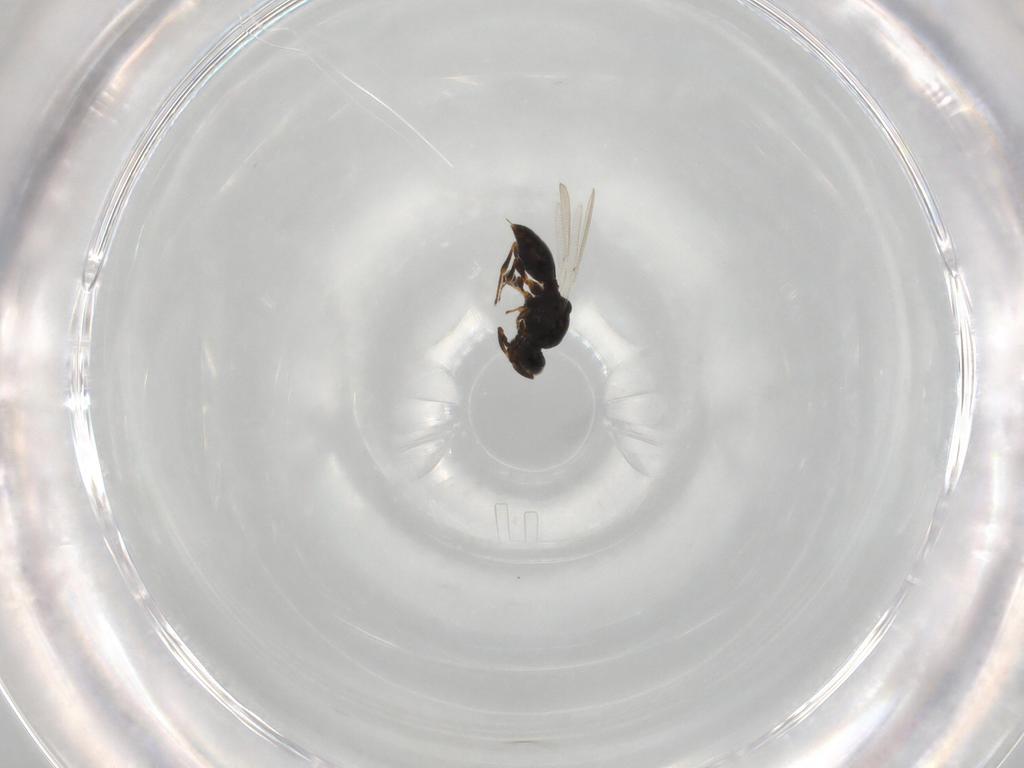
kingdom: Animalia
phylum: Arthropoda
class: Insecta
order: Hymenoptera
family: Platygastridae
